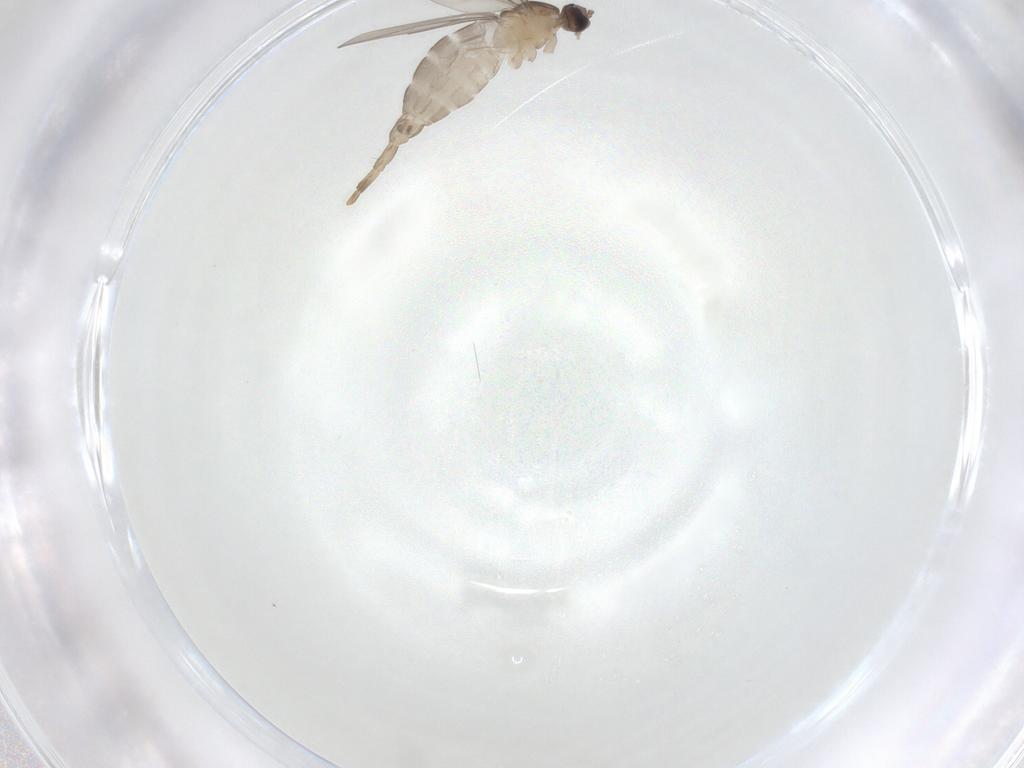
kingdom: Animalia
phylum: Arthropoda
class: Insecta
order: Diptera
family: Cecidomyiidae
